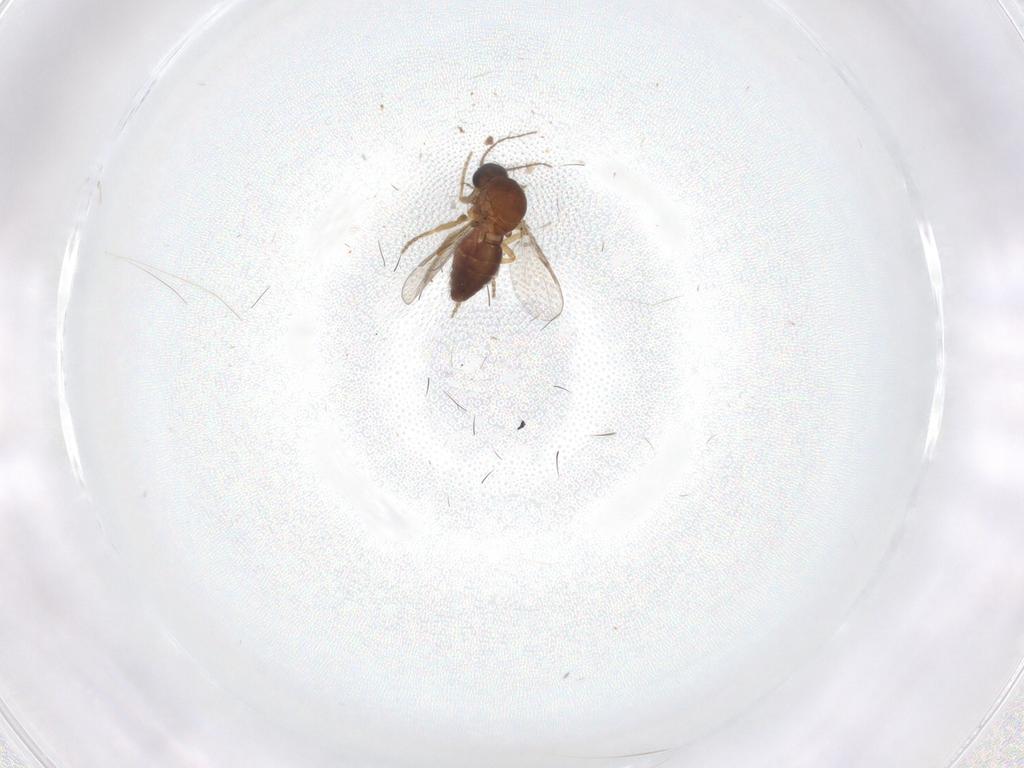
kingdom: Animalia
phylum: Arthropoda
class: Insecta
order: Diptera
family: Ceratopogonidae
